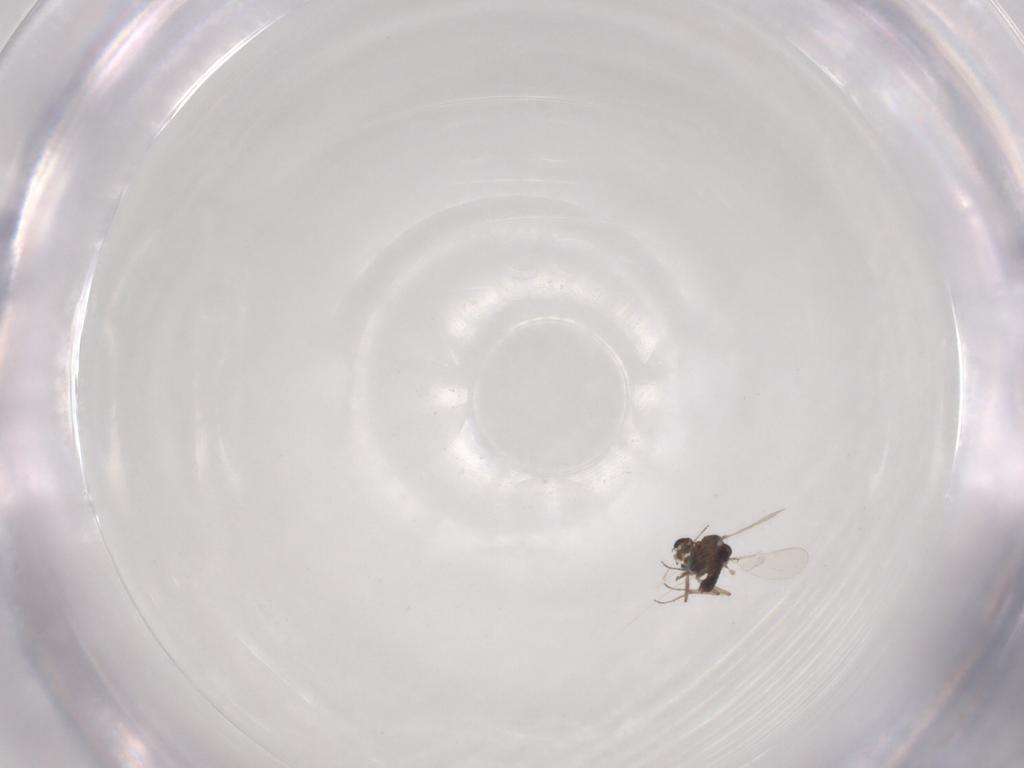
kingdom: Animalia
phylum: Arthropoda
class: Insecta
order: Diptera
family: Chironomidae
